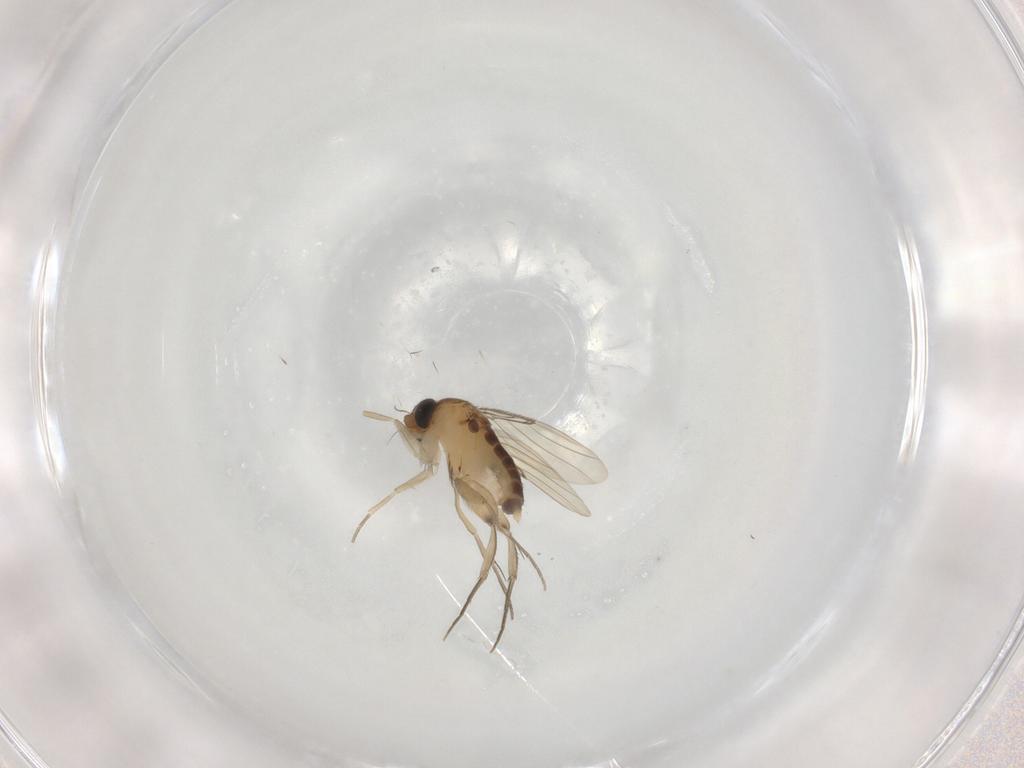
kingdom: Animalia
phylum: Arthropoda
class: Insecta
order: Diptera
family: Phoridae
